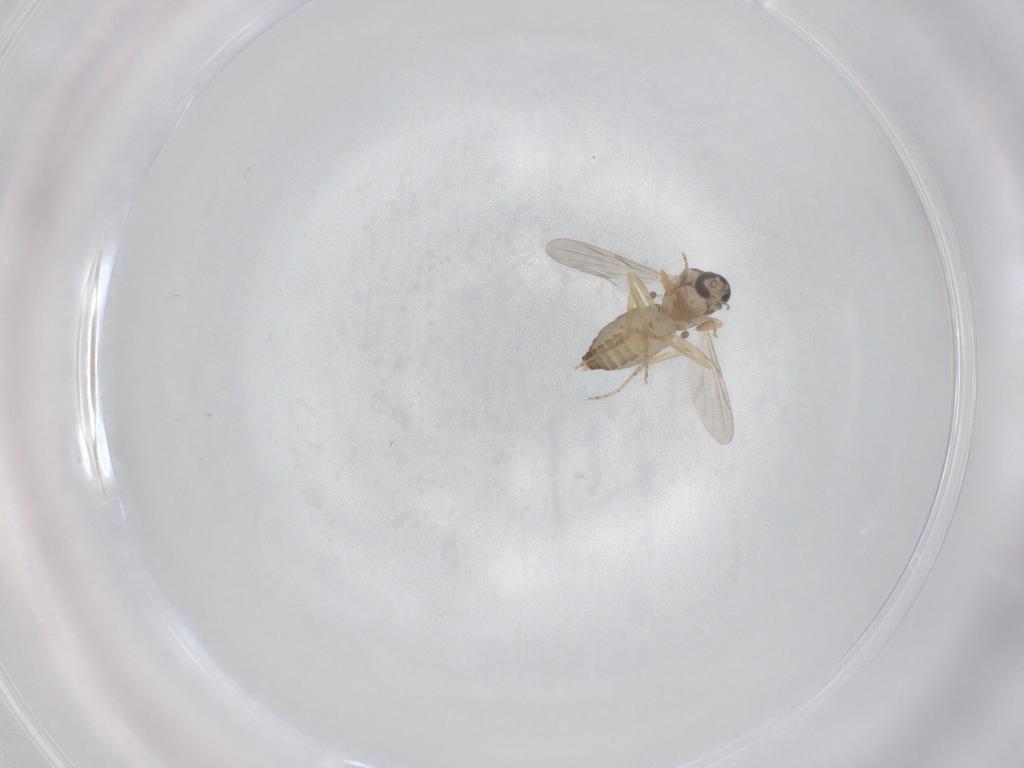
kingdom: Animalia
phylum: Arthropoda
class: Insecta
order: Diptera
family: Ceratopogonidae
